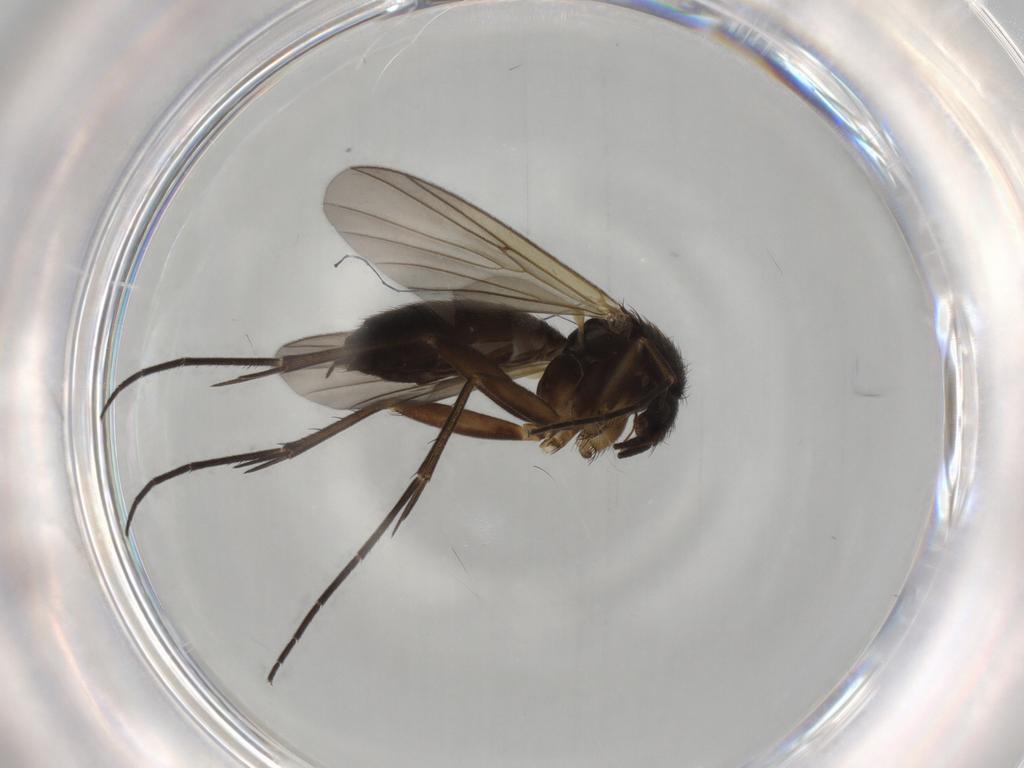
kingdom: Animalia
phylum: Arthropoda
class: Insecta
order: Diptera
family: Mycetophilidae
